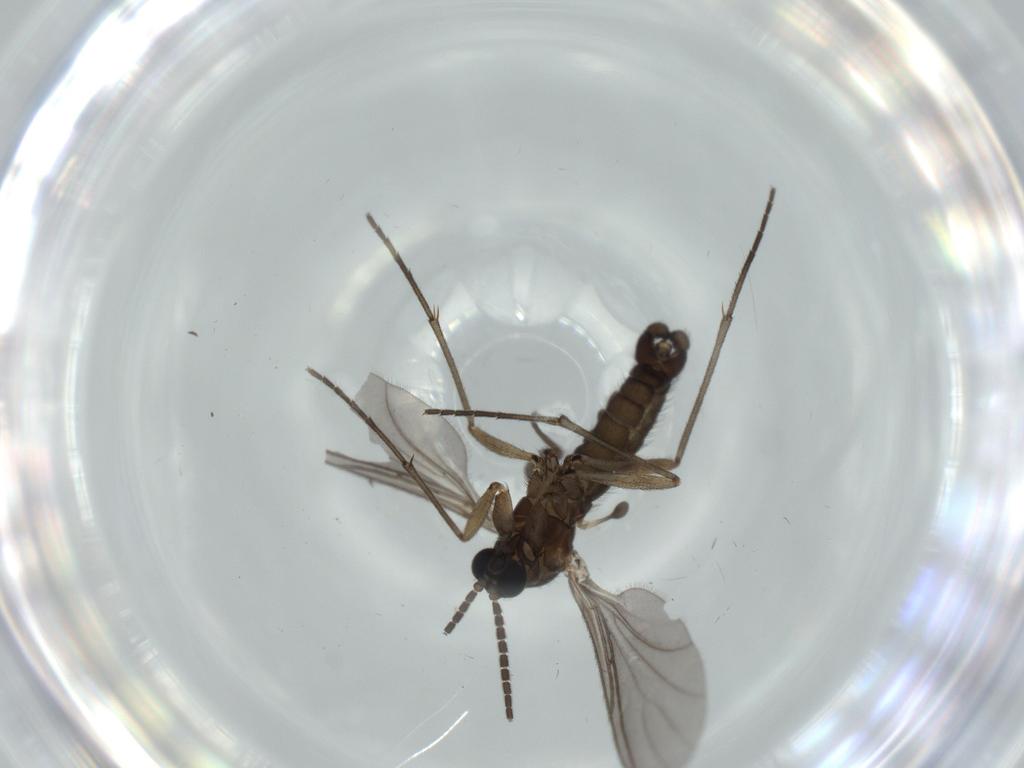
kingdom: Animalia
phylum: Arthropoda
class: Insecta
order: Diptera
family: Sciaridae
